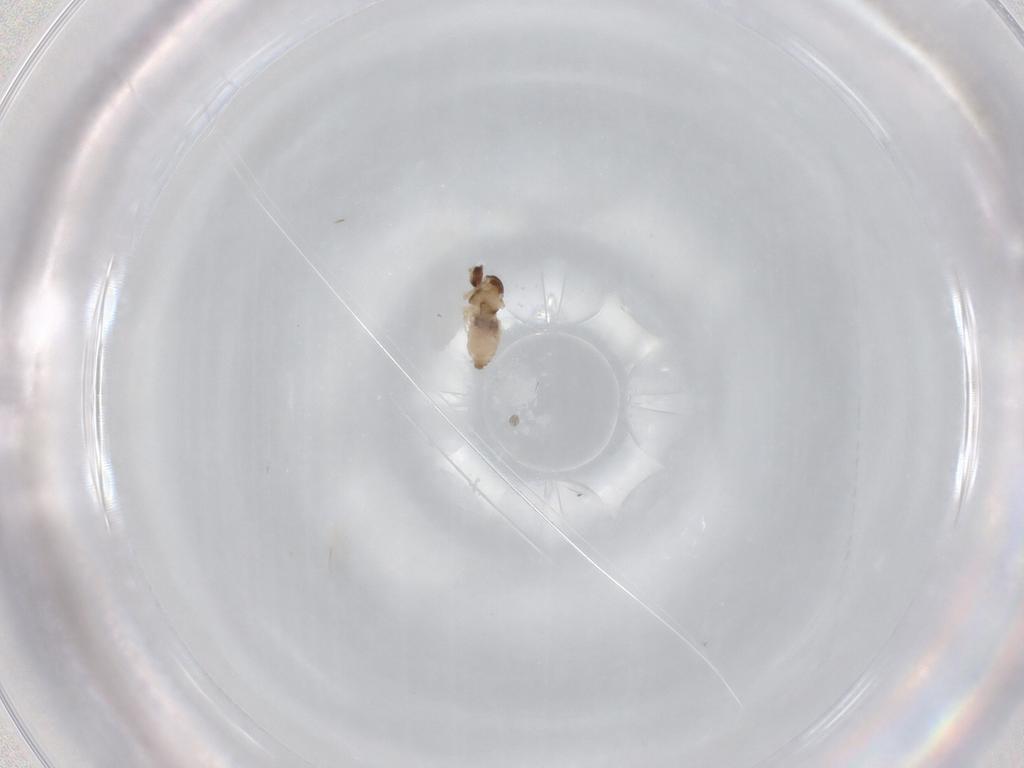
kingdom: Animalia
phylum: Arthropoda
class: Insecta
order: Diptera
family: Cecidomyiidae
